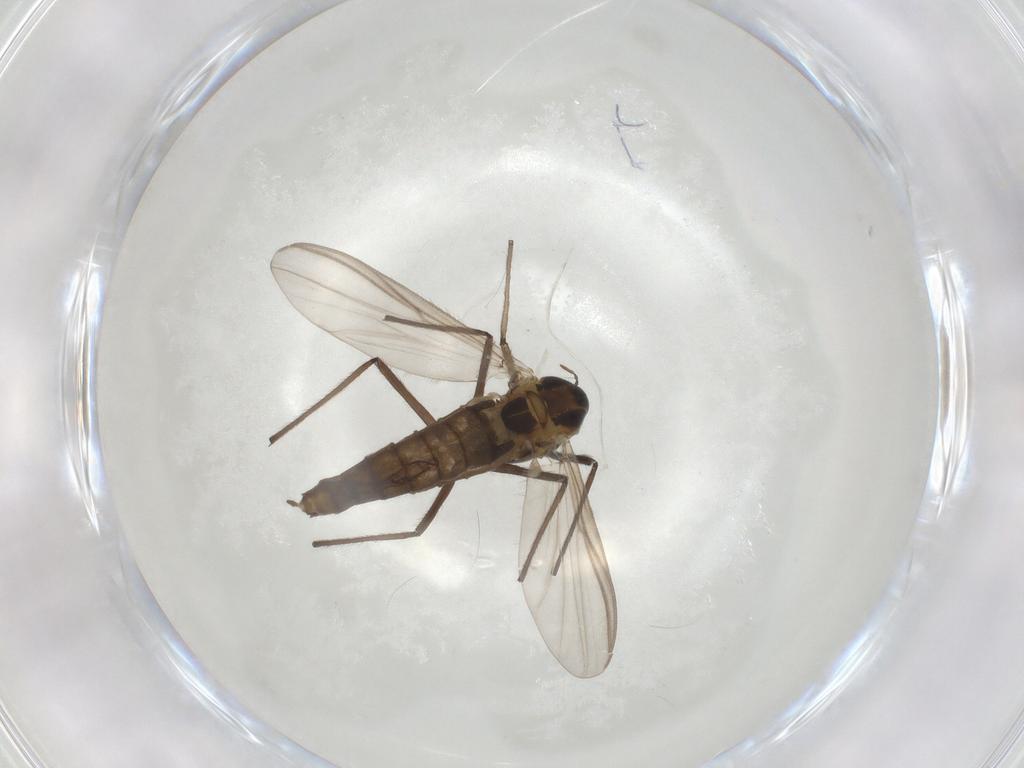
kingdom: Animalia
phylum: Arthropoda
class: Insecta
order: Diptera
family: Chironomidae
